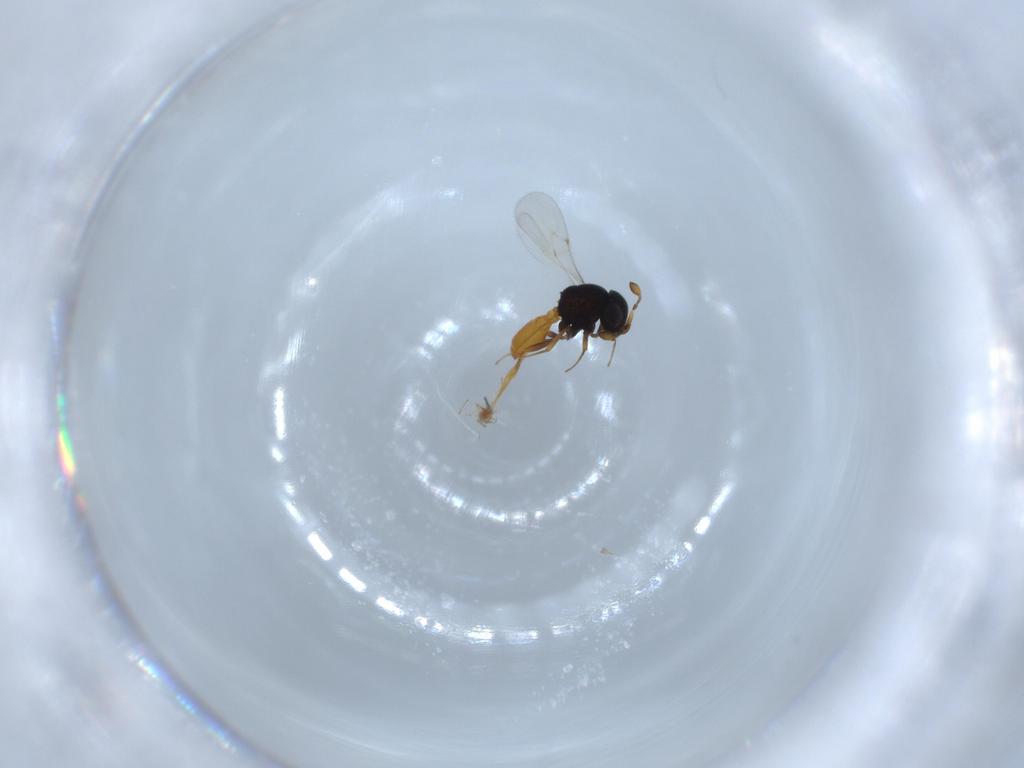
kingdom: Animalia
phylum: Arthropoda
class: Insecta
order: Hymenoptera
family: Scelionidae
